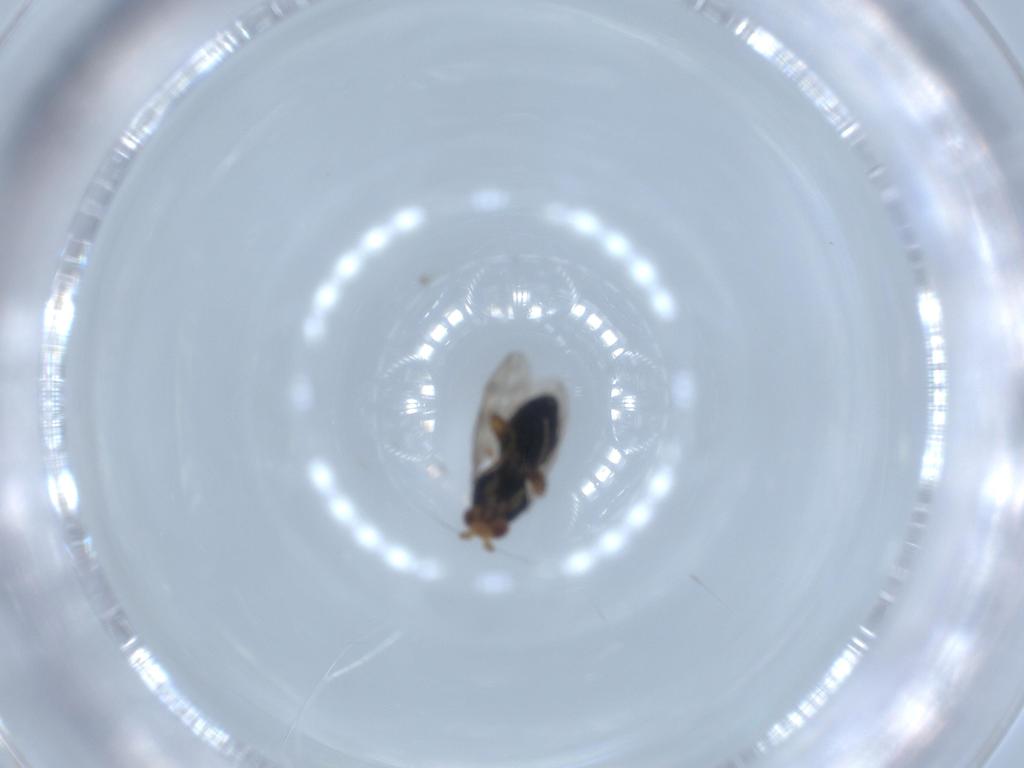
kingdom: Animalia
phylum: Arthropoda
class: Insecta
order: Diptera
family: Sphaeroceridae
